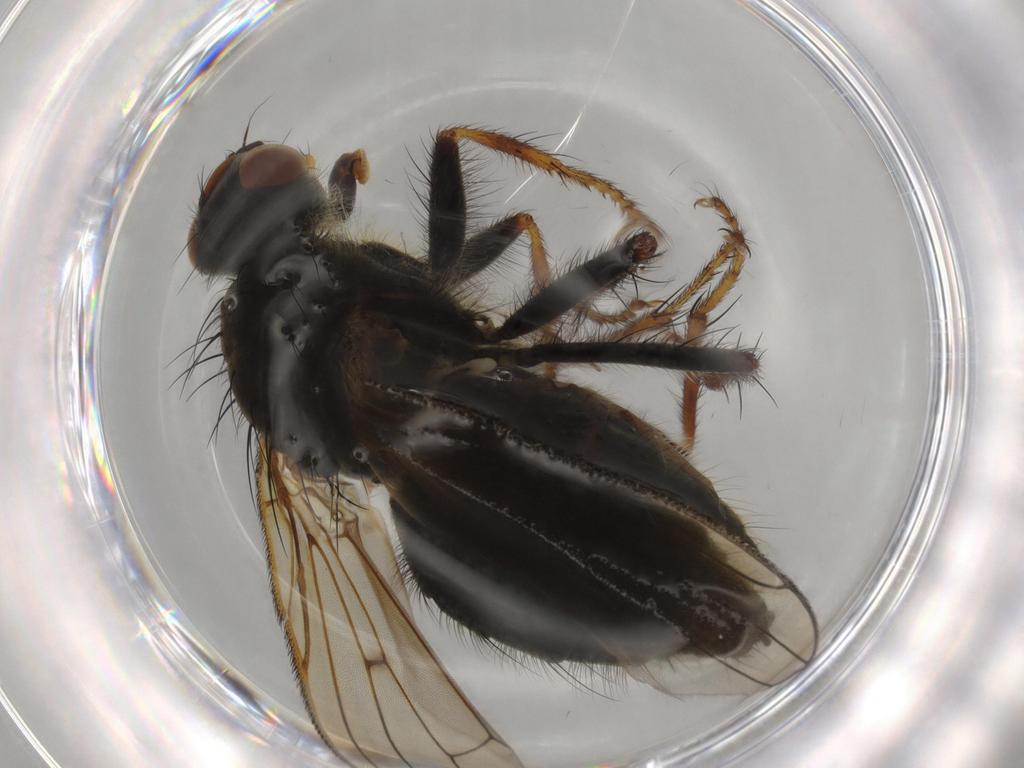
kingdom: Animalia
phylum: Arthropoda
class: Insecta
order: Diptera
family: Scathophagidae
